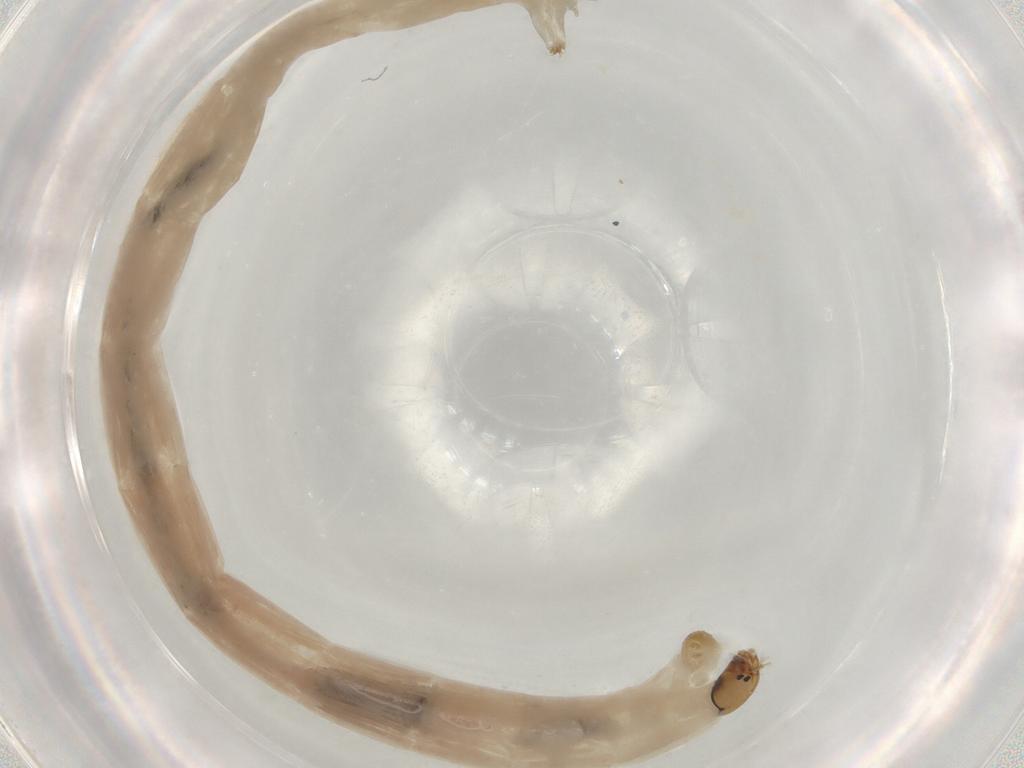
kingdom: Animalia
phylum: Arthropoda
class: Insecta
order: Diptera
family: Chironomidae
